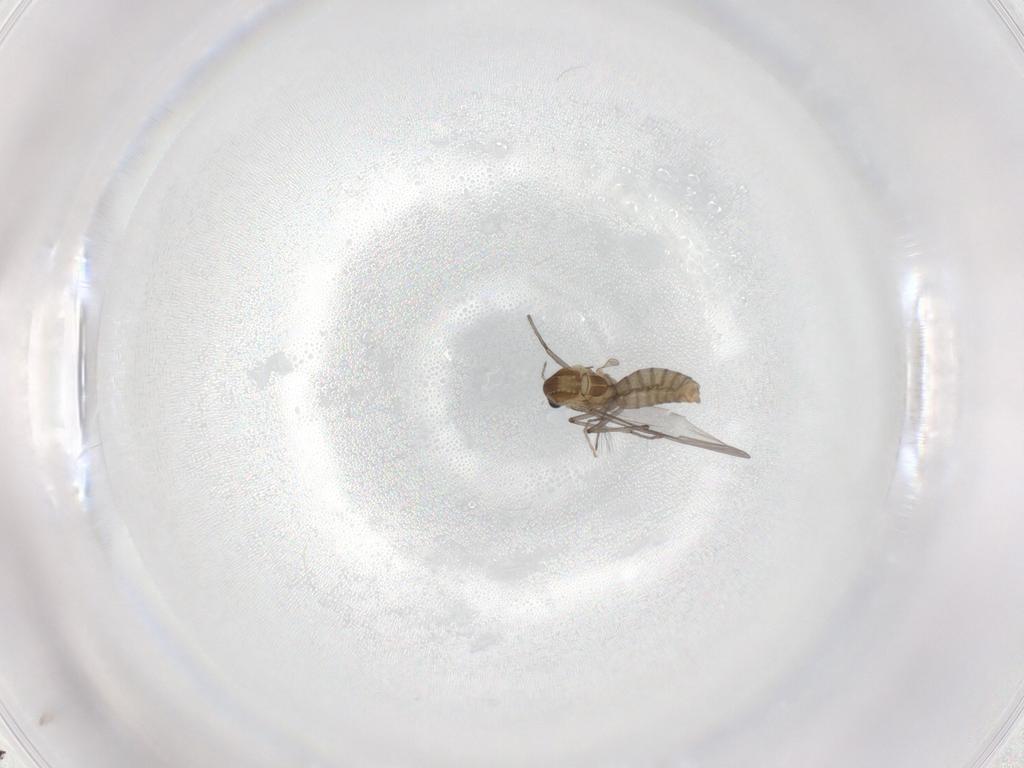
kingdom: Animalia
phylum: Arthropoda
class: Insecta
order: Diptera
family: Chironomidae
